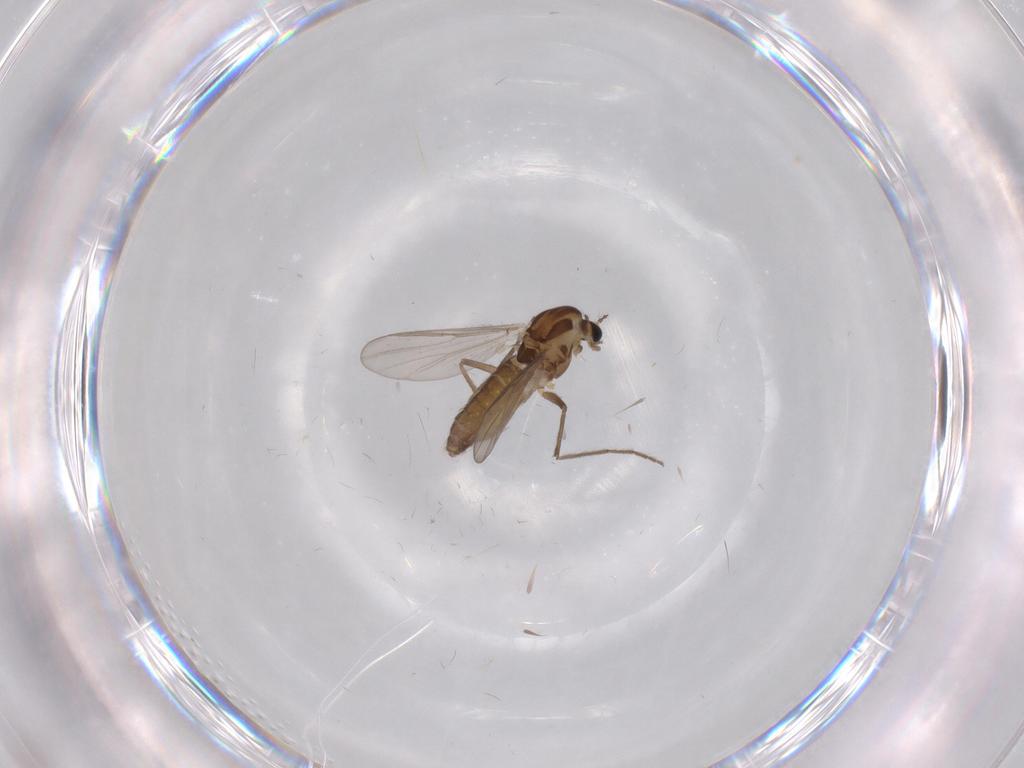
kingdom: Animalia
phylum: Arthropoda
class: Insecta
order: Diptera
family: Chironomidae
